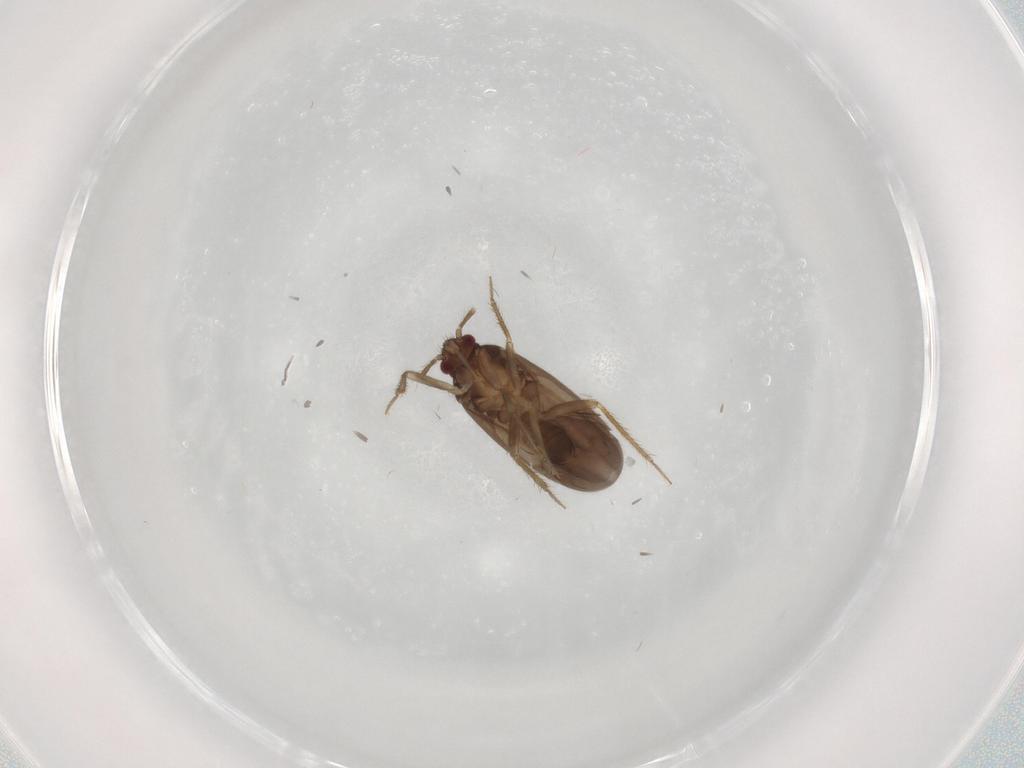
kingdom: Animalia
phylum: Arthropoda
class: Insecta
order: Hemiptera
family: Ceratocombidae
